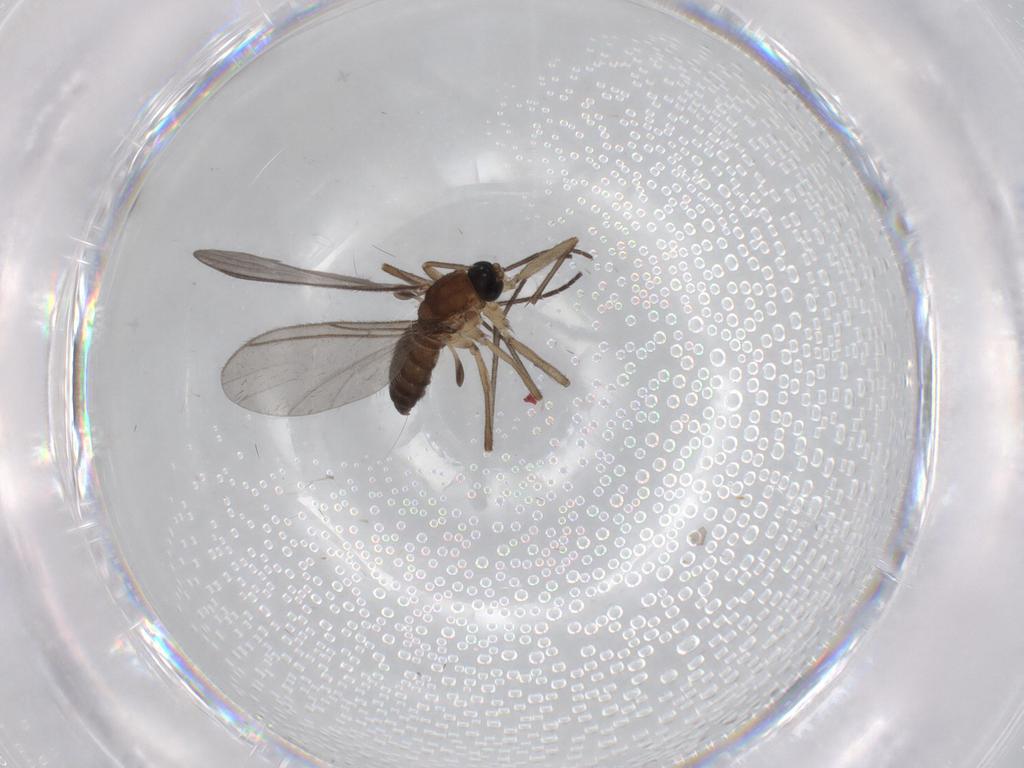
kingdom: Animalia
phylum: Arthropoda
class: Insecta
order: Diptera
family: Sciaridae
